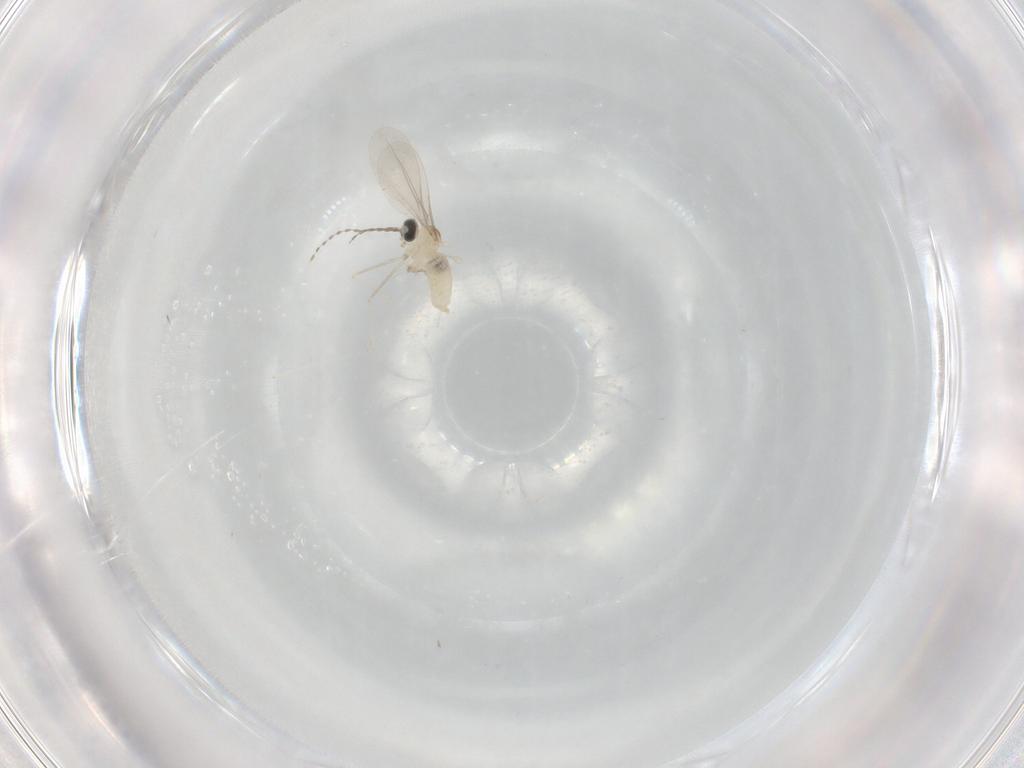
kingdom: Animalia
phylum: Arthropoda
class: Insecta
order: Diptera
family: Cecidomyiidae
